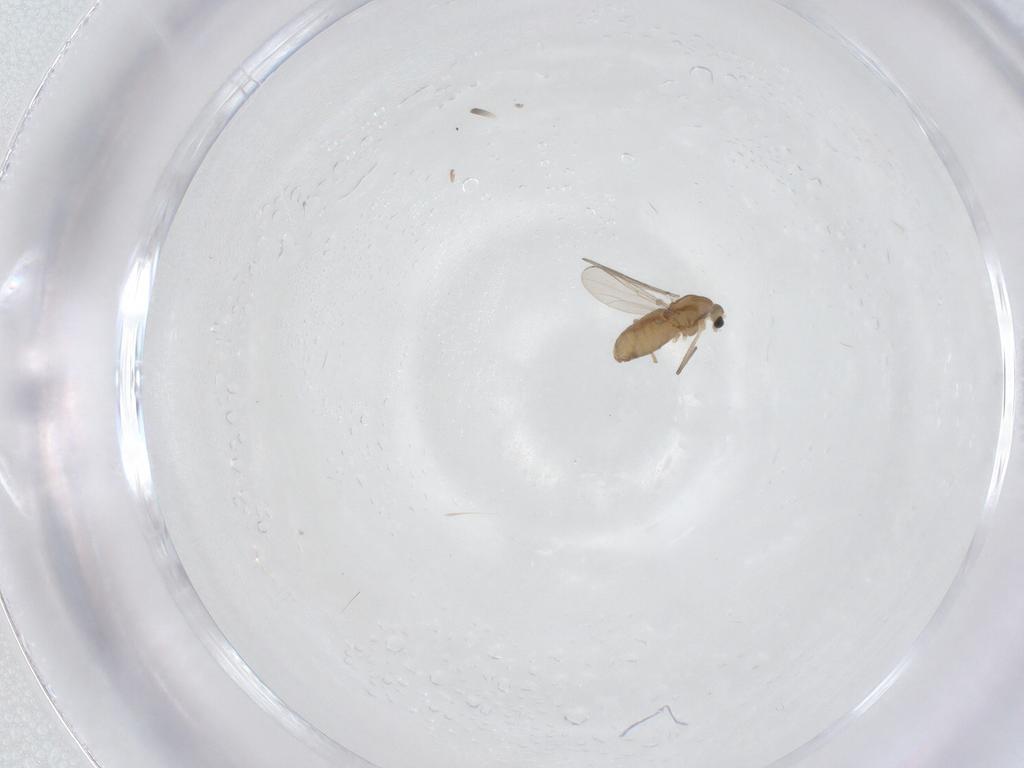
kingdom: Animalia
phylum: Arthropoda
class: Insecta
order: Diptera
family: Chironomidae
